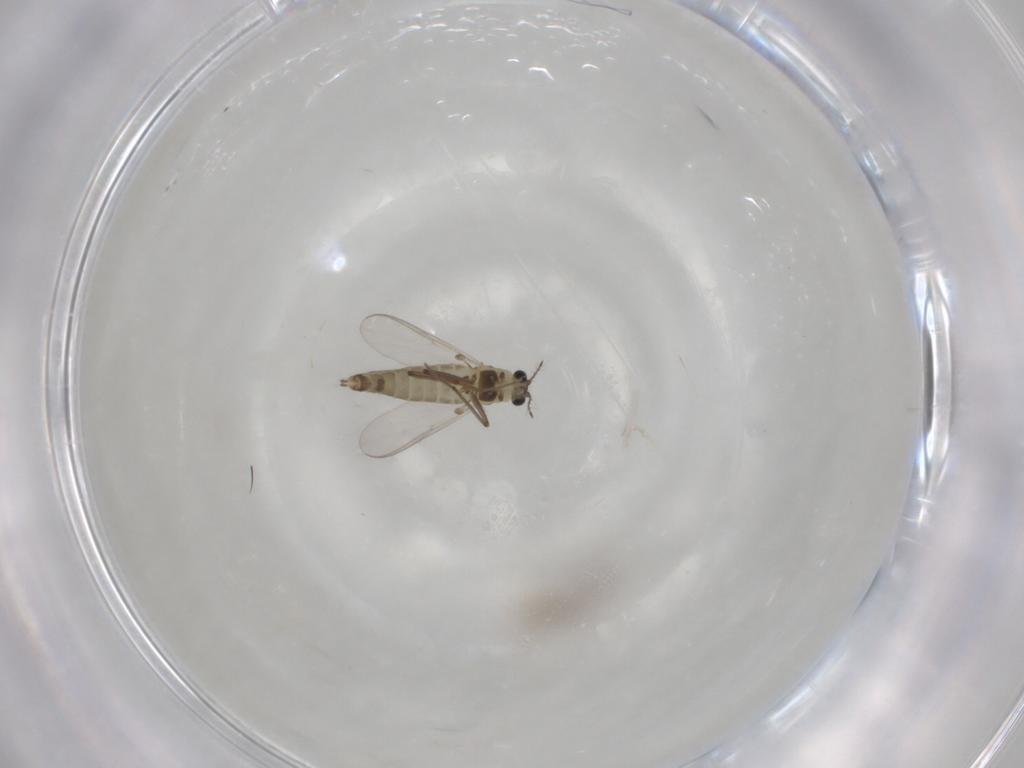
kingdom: Animalia
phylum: Arthropoda
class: Insecta
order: Diptera
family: Chironomidae
